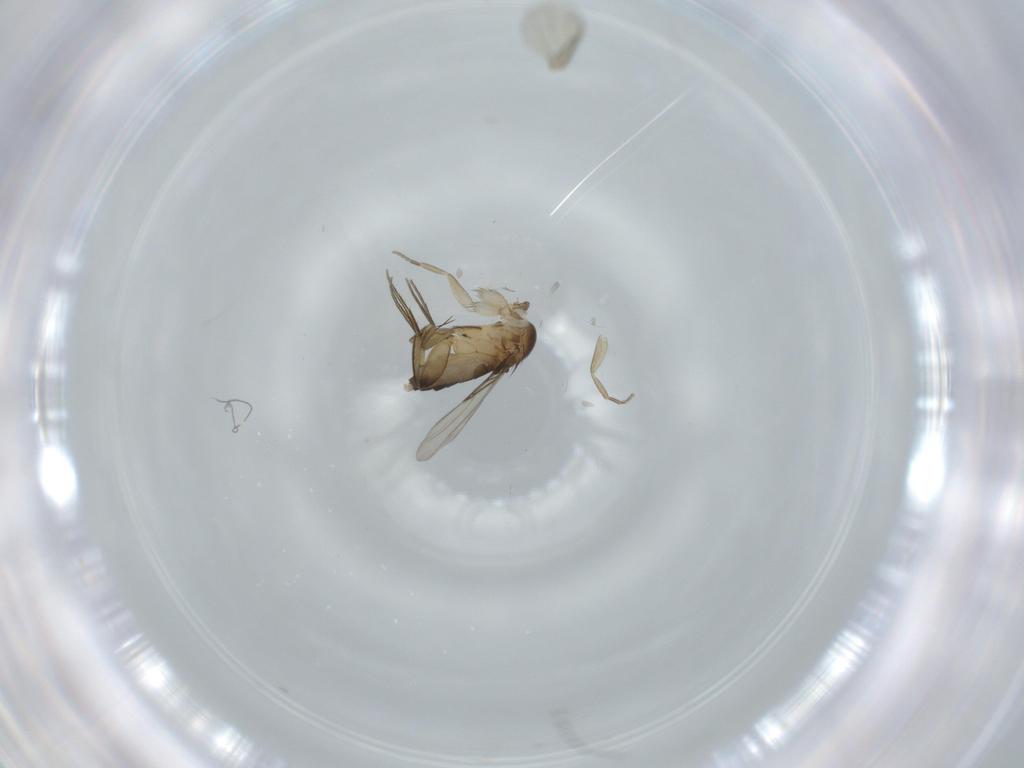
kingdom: Animalia
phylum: Arthropoda
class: Insecta
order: Diptera
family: Phoridae
